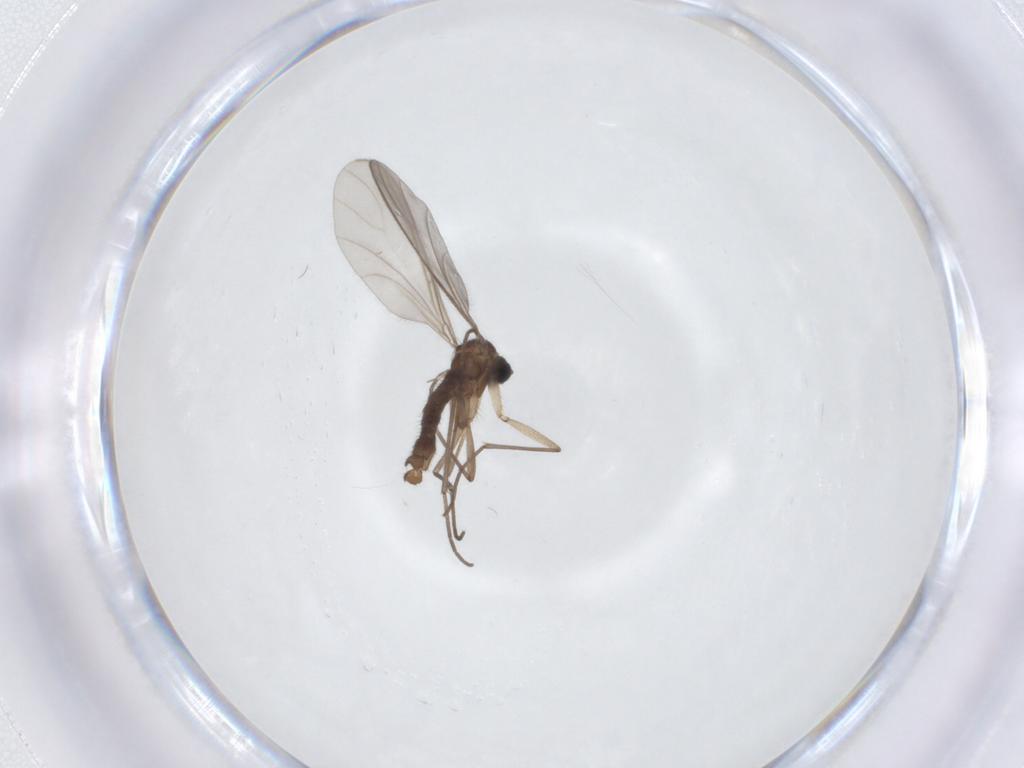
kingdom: Animalia
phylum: Arthropoda
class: Insecta
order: Diptera
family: Sciaridae
